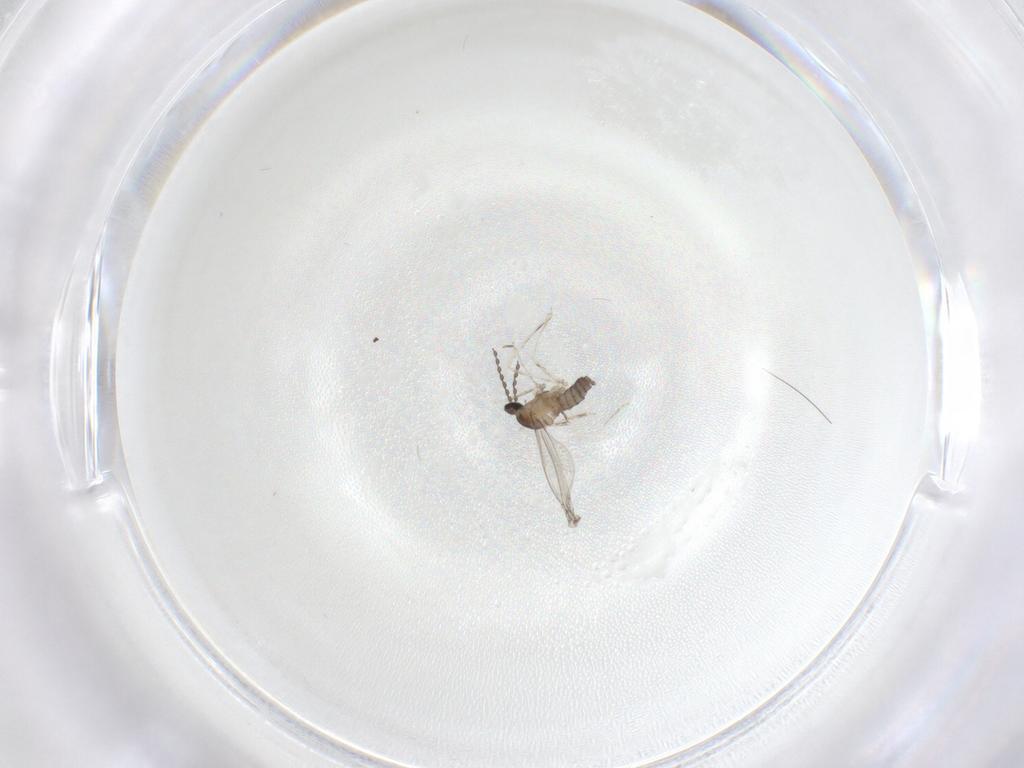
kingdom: Animalia
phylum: Arthropoda
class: Insecta
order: Diptera
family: Cecidomyiidae
